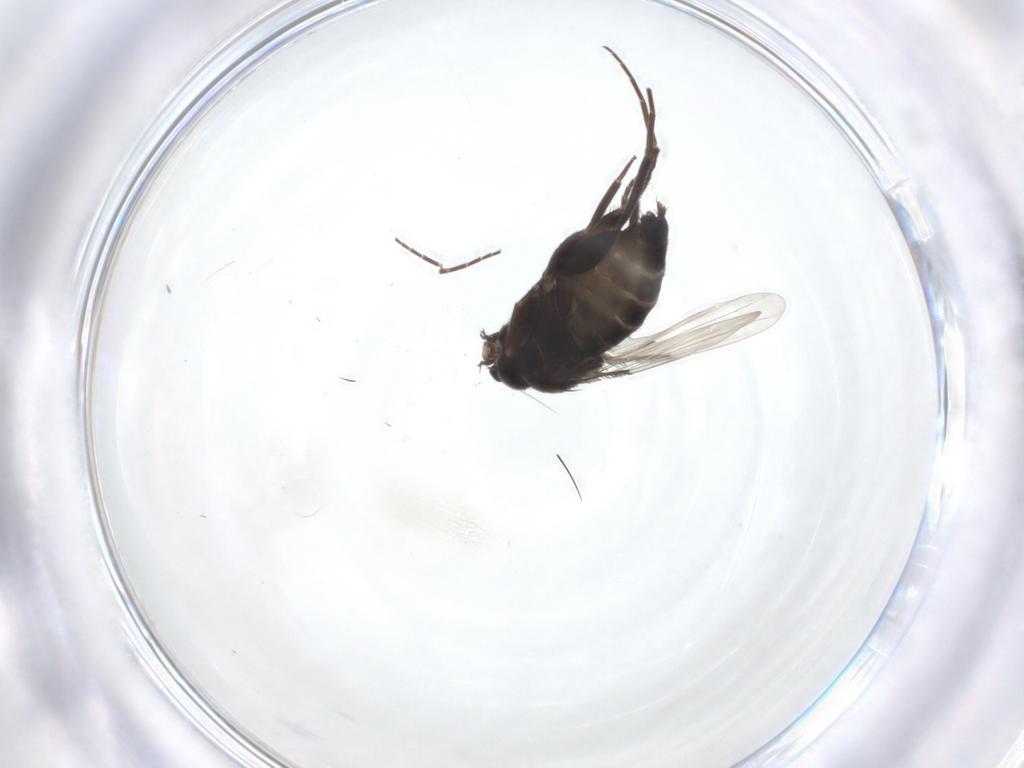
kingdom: Animalia
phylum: Arthropoda
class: Insecta
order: Diptera
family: Phoridae
